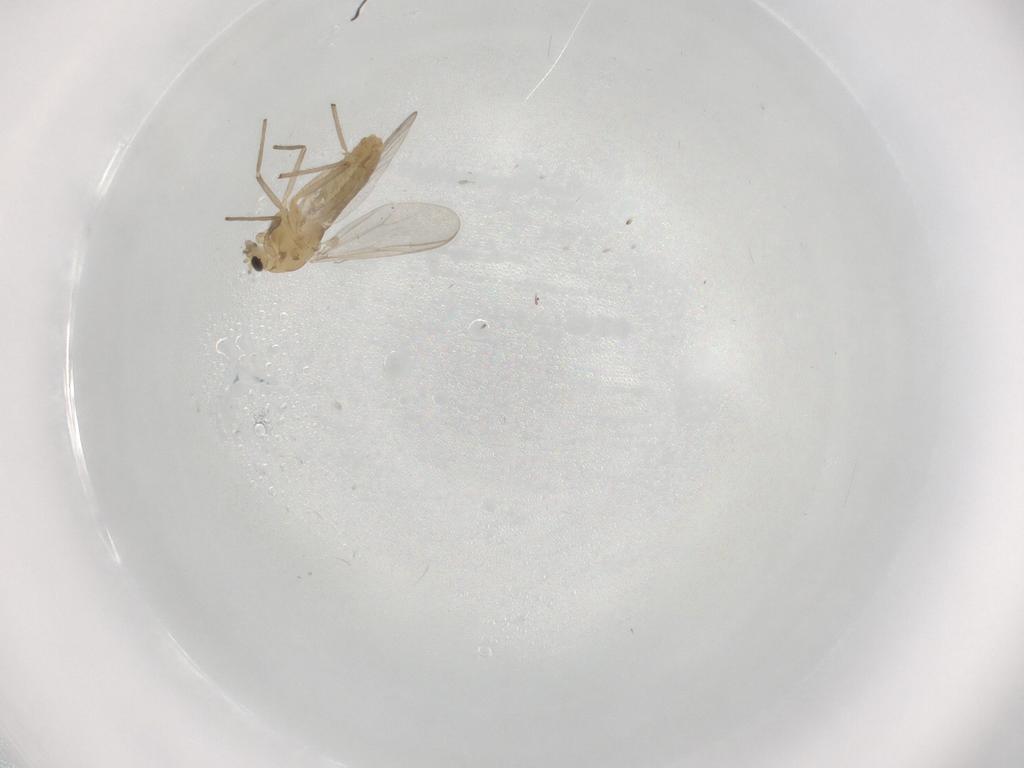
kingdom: Animalia
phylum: Arthropoda
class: Insecta
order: Diptera
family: Chironomidae
